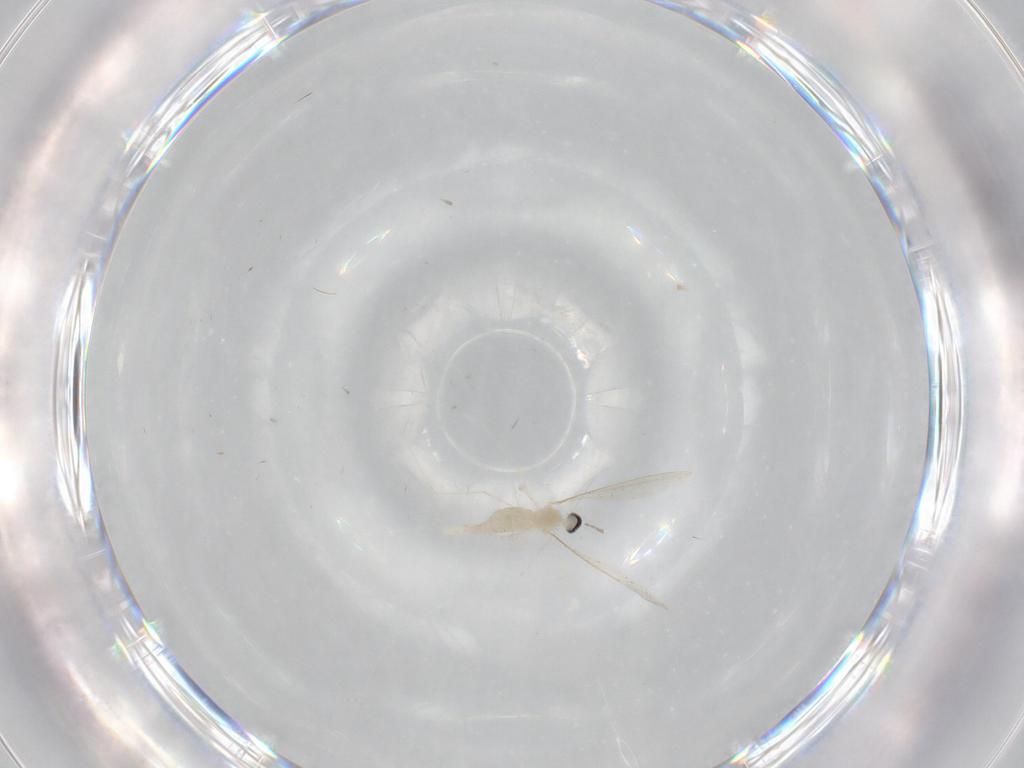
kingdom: Animalia
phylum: Arthropoda
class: Insecta
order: Diptera
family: Cecidomyiidae
